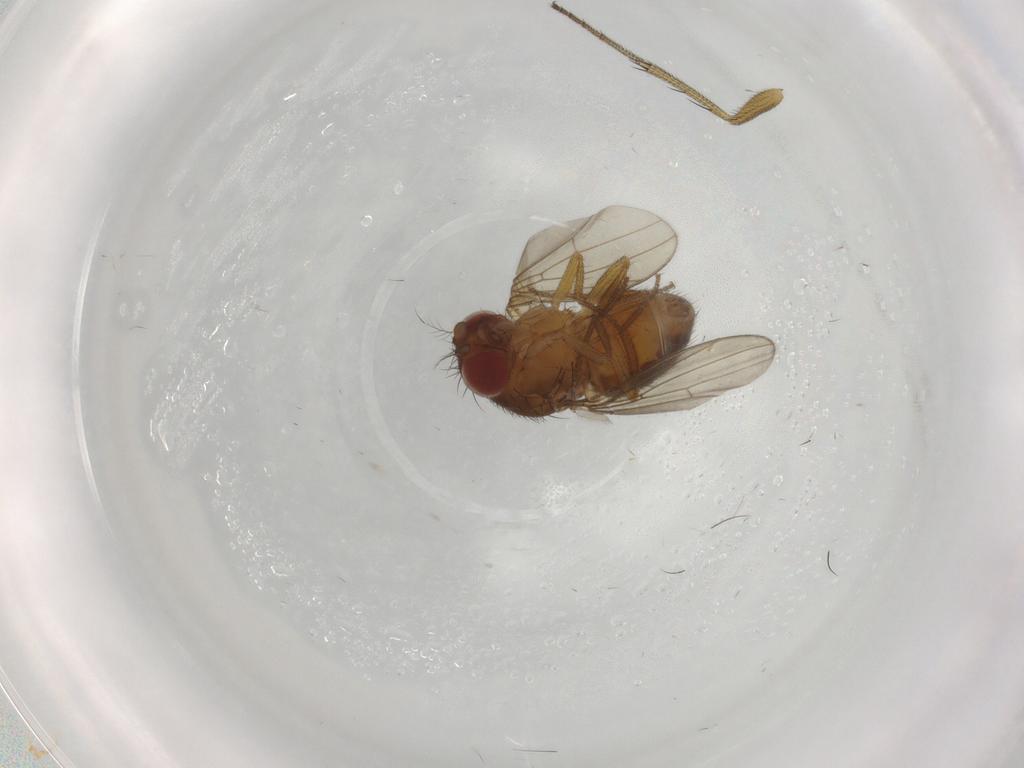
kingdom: Animalia
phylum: Arthropoda
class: Insecta
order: Diptera
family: Drosophilidae
